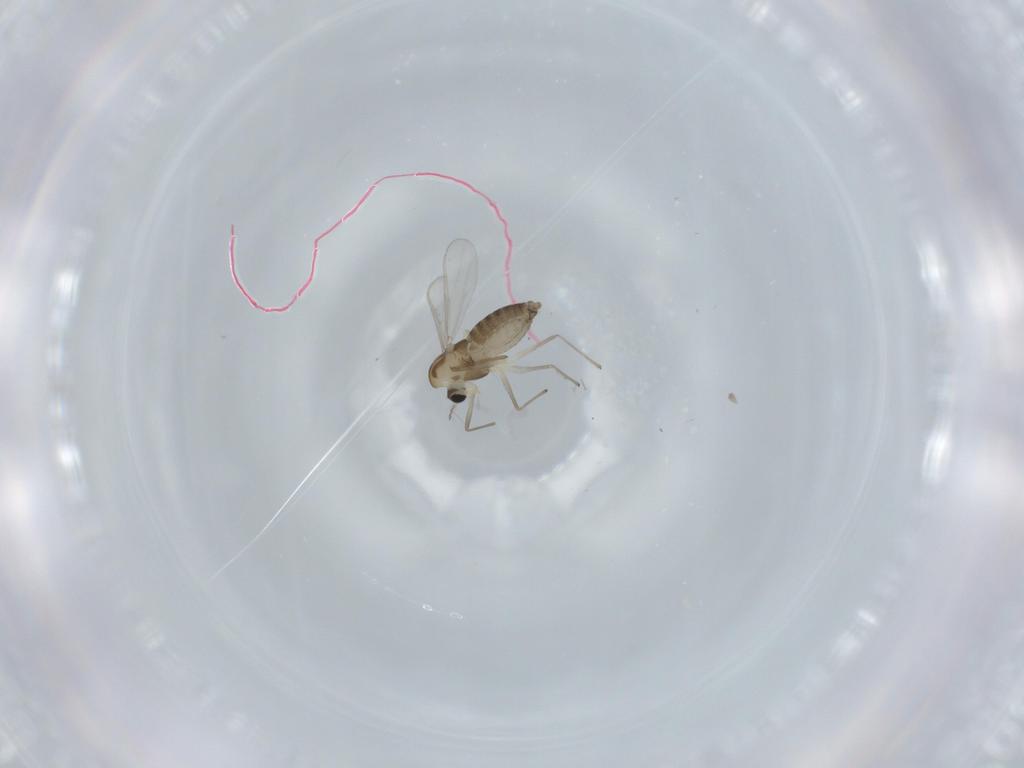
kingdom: Animalia
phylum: Arthropoda
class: Insecta
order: Diptera
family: Chironomidae
